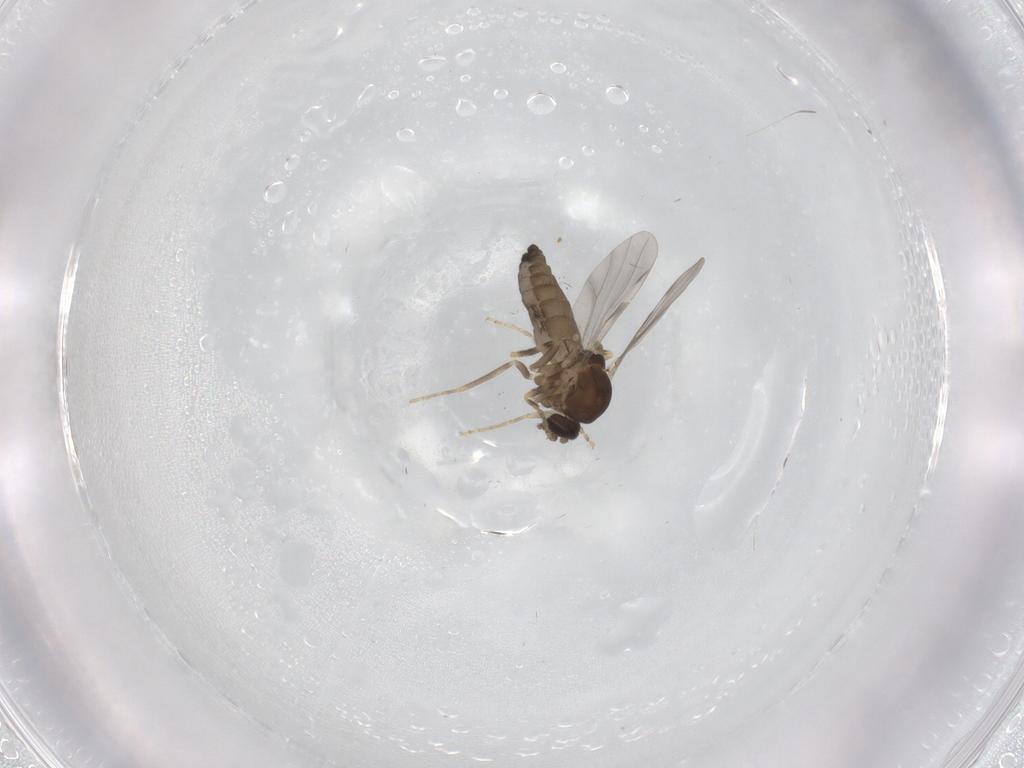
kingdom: Animalia
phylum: Arthropoda
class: Insecta
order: Diptera
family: Ceratopogonidae
